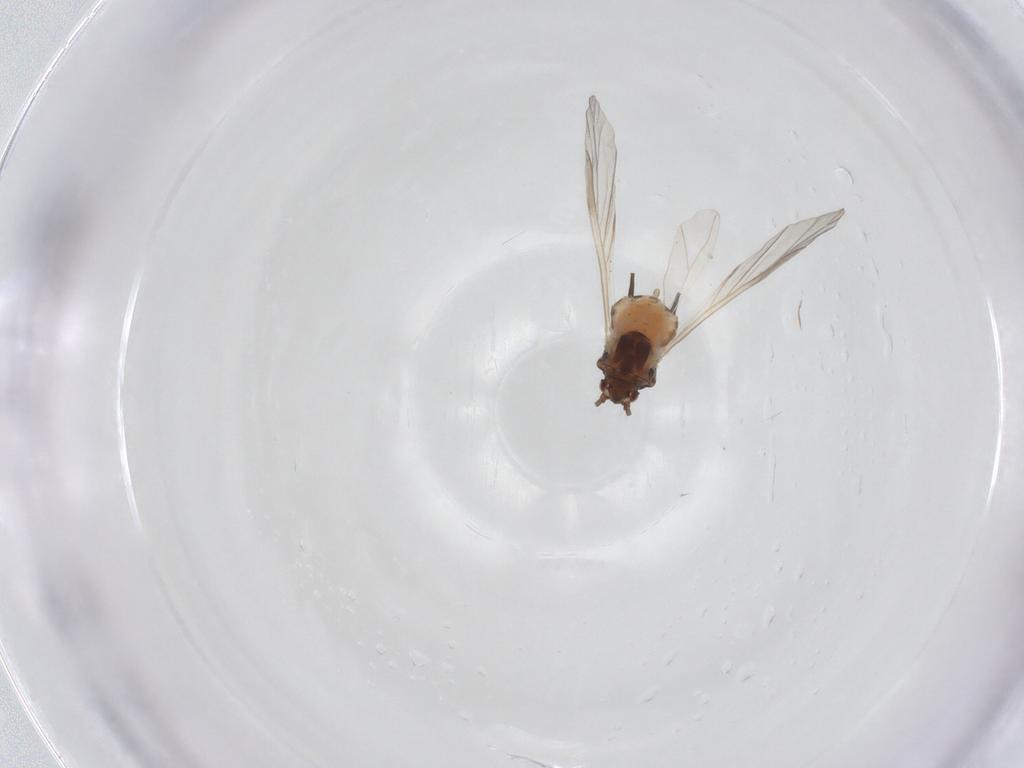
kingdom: Animalia
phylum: Arthropoda
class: Insecta
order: Hemiptera
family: Aphididae
